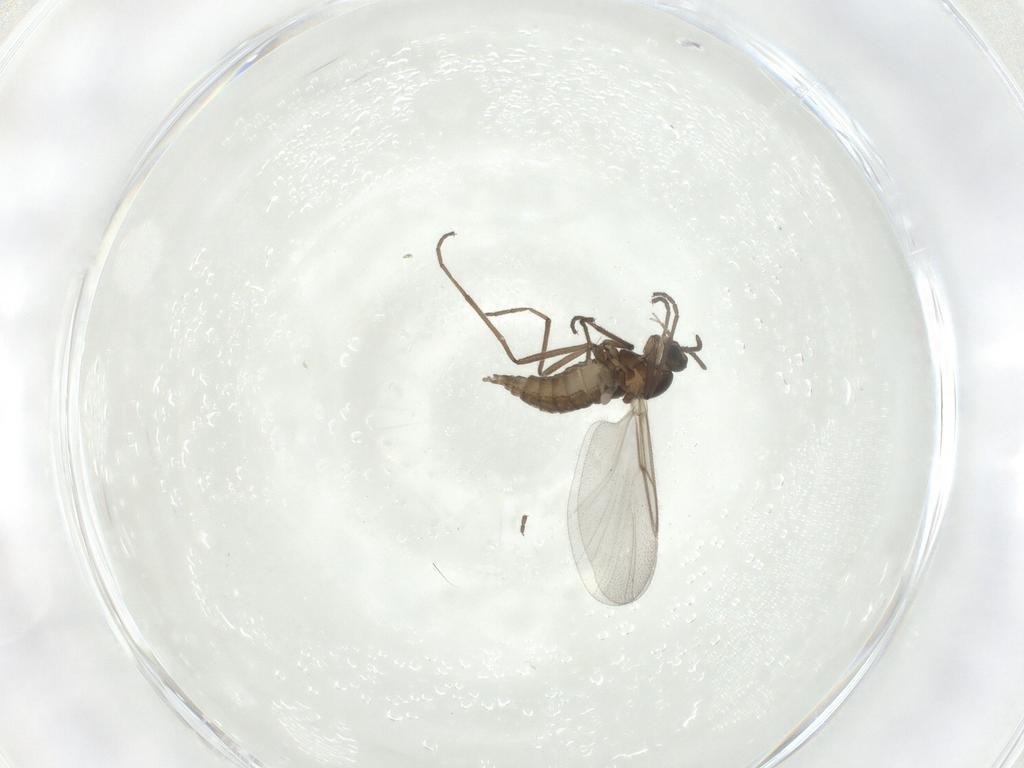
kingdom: Animalia
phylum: Arthropoda
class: Insecta
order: Diptera
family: Cecidomyiidae
